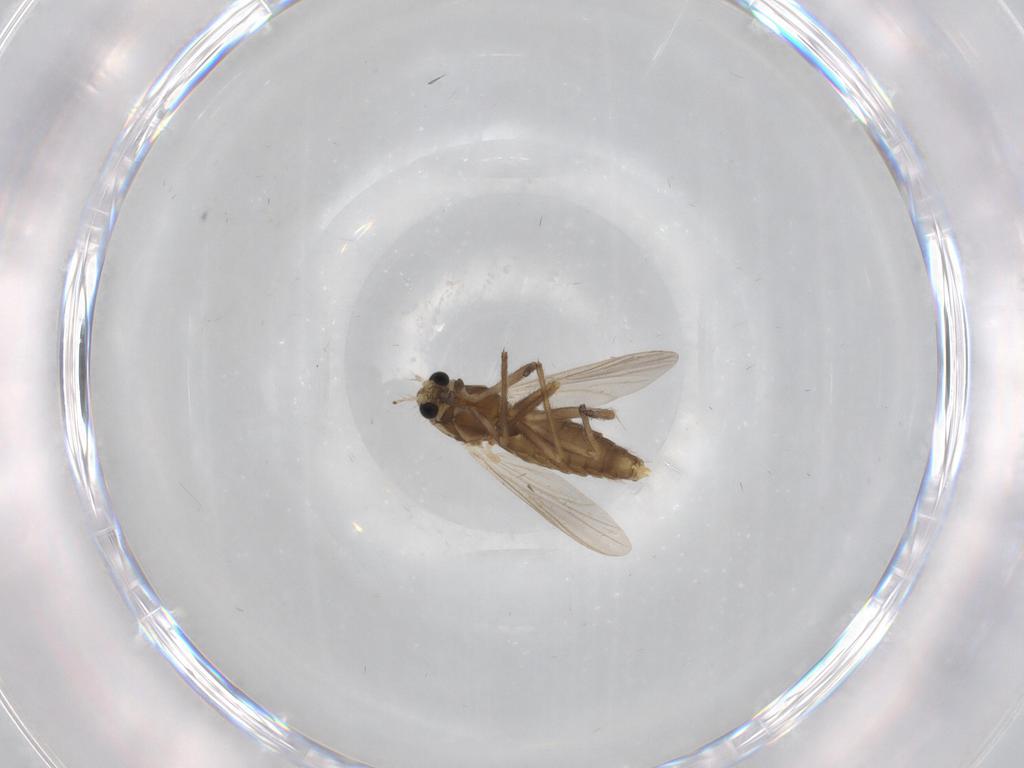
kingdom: Animalia
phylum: Arthropoda
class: Insecta
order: Diptera
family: Chironomidae
